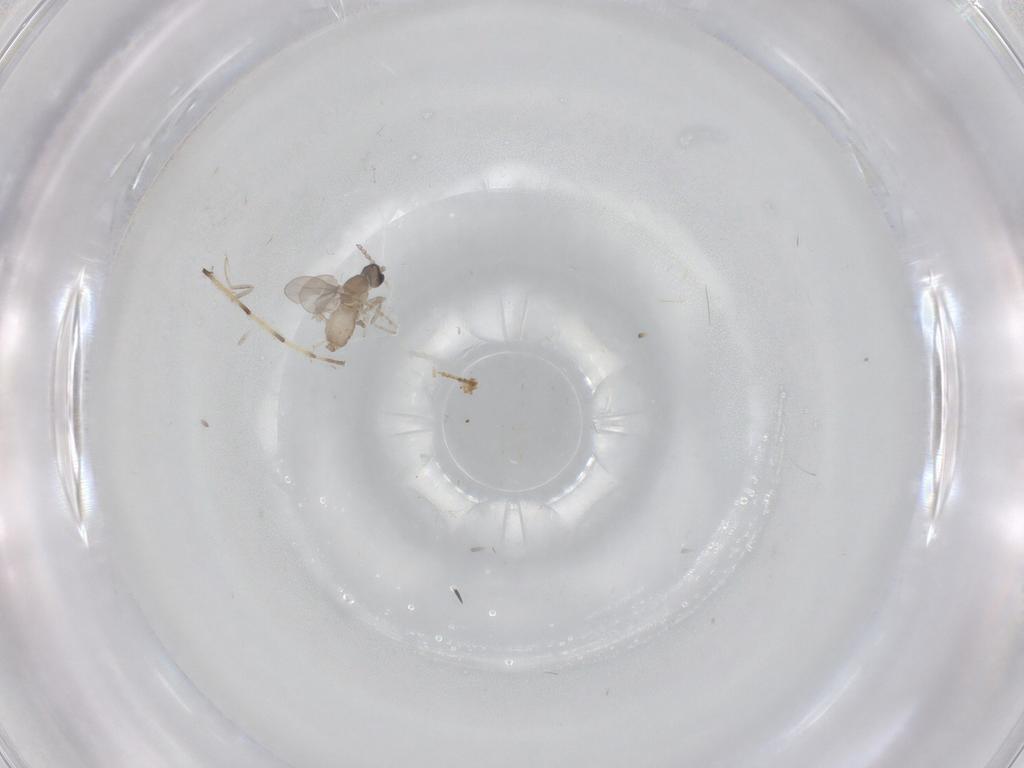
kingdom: Animalia
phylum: Arthropoda
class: Insecta
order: Diptera
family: Cecidomyiidae
